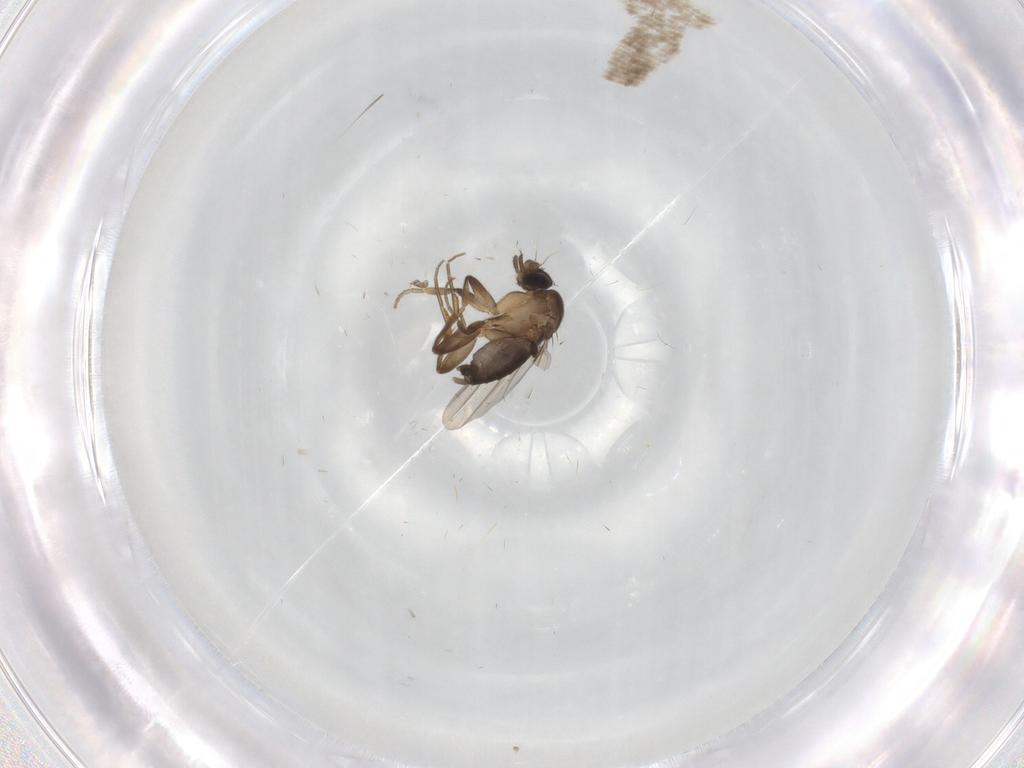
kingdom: Animalia
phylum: Arthropoda
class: Insecta
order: Diptera
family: Phoridae
